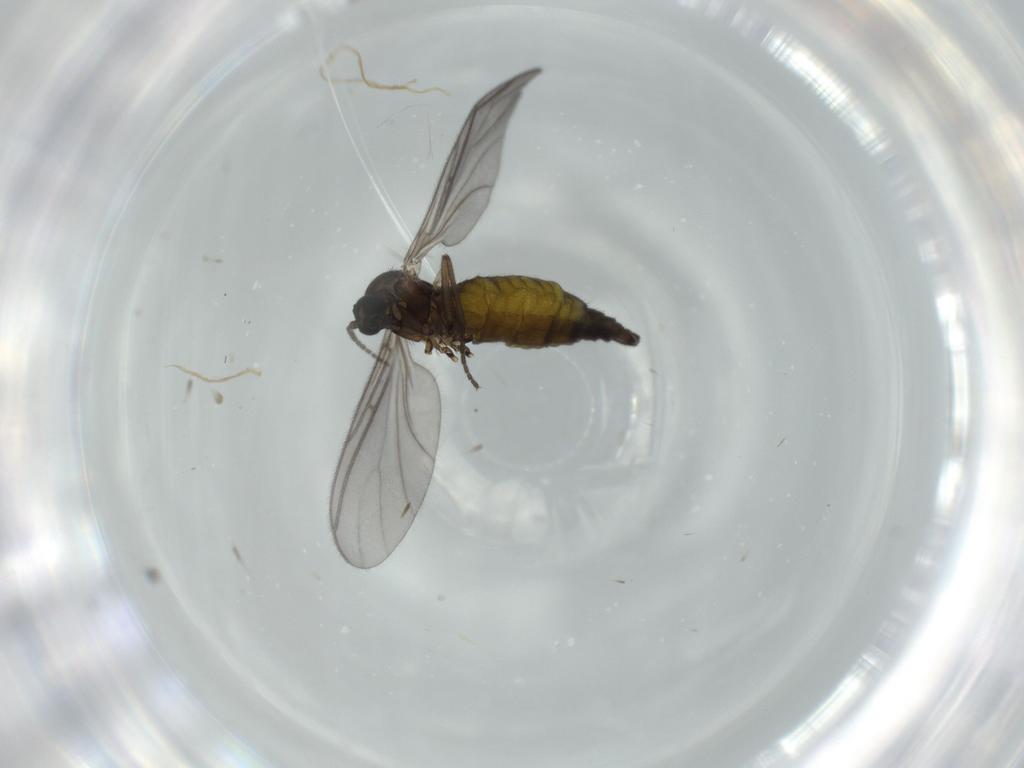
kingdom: Animalia
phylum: Arthropoda
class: Insecta
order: Diptera
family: Sciaridae
